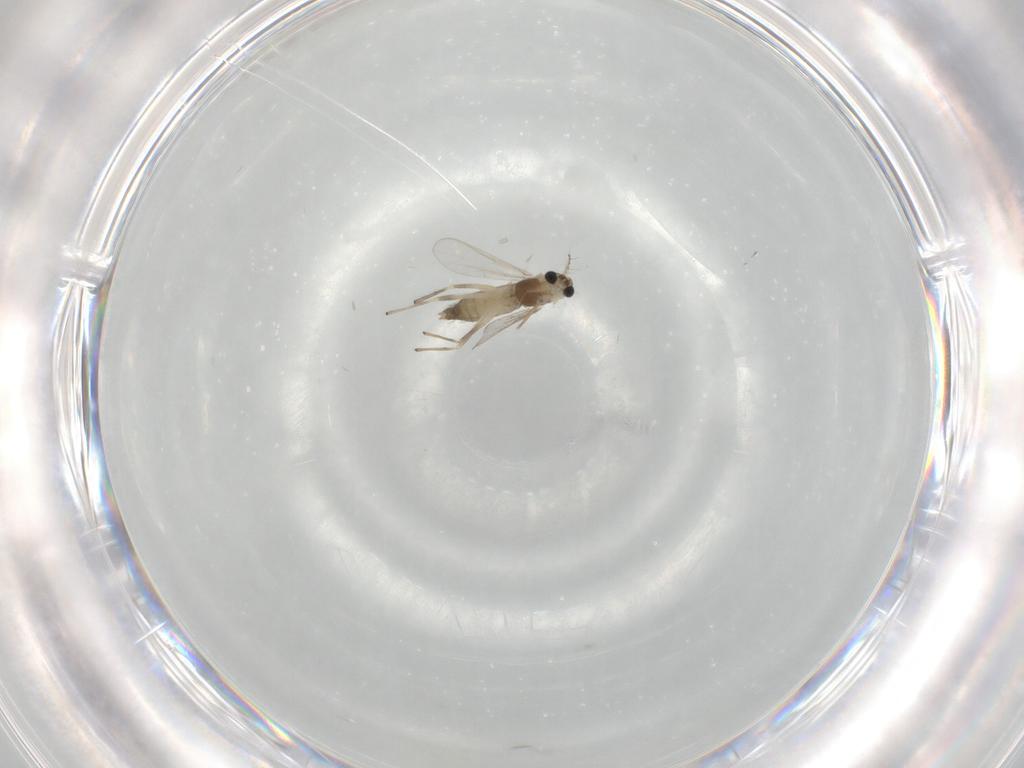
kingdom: Animalia
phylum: Arthropoda
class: Insecta
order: Diptera
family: Chironomidae
